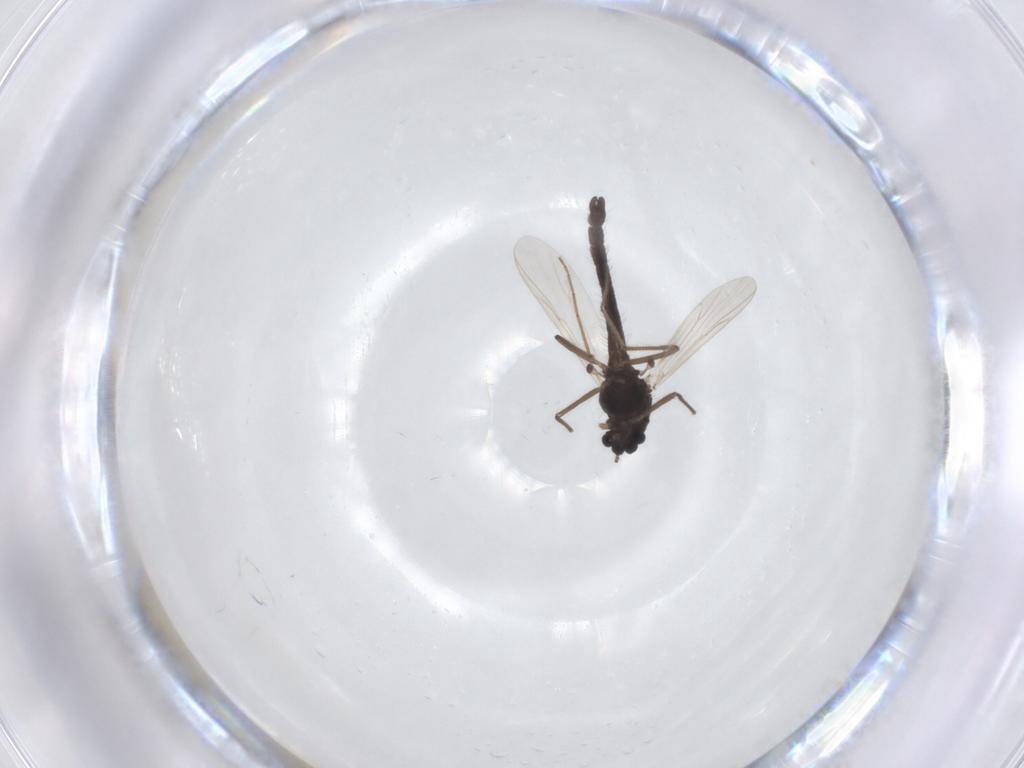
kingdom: Animalia
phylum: Arthropoda
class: Insecta
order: Diptera
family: Chironomidae
